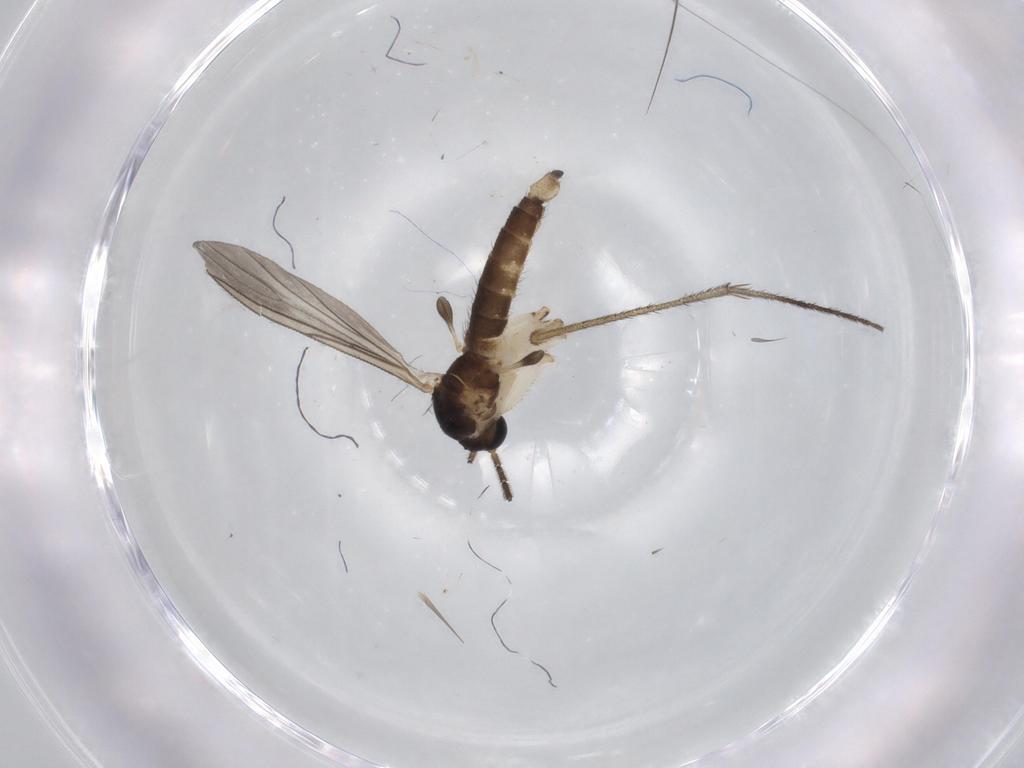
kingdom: Animalia
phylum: Arthropoda
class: Insecta
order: Diptera
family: Sciaridae
